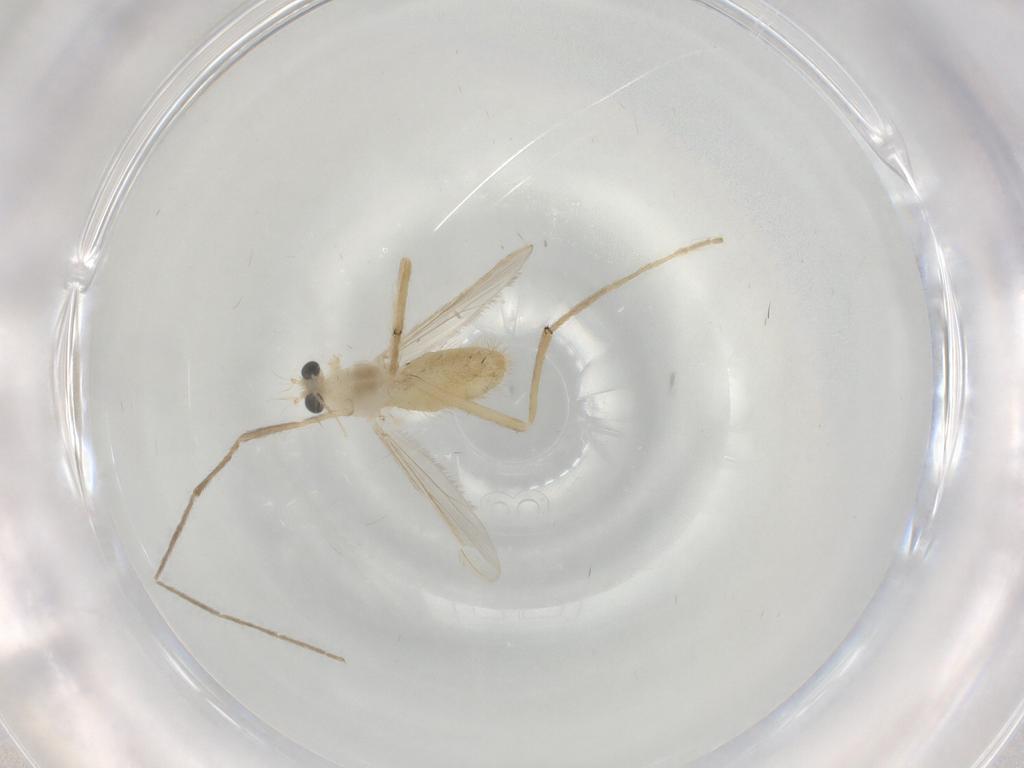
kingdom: Animalia
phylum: Arthropoda
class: Insecta
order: Diptera
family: Chironomidae
